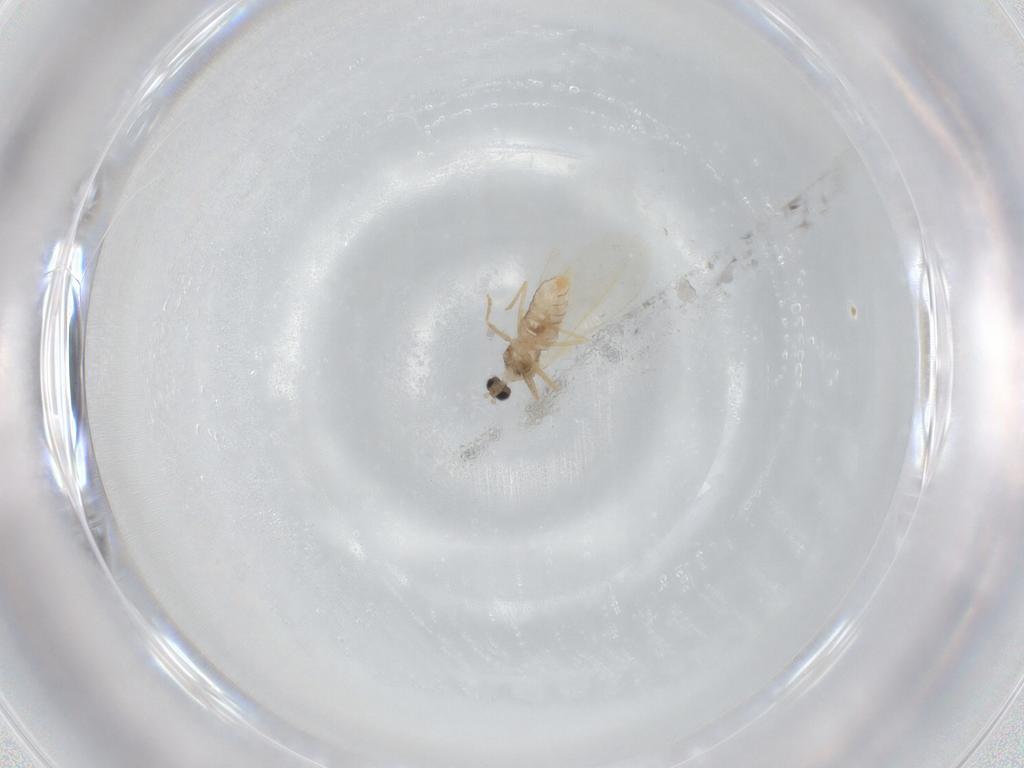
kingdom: Animalia
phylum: Arthropoda
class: Insecta
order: Diptera
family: Cecidomyiidae
